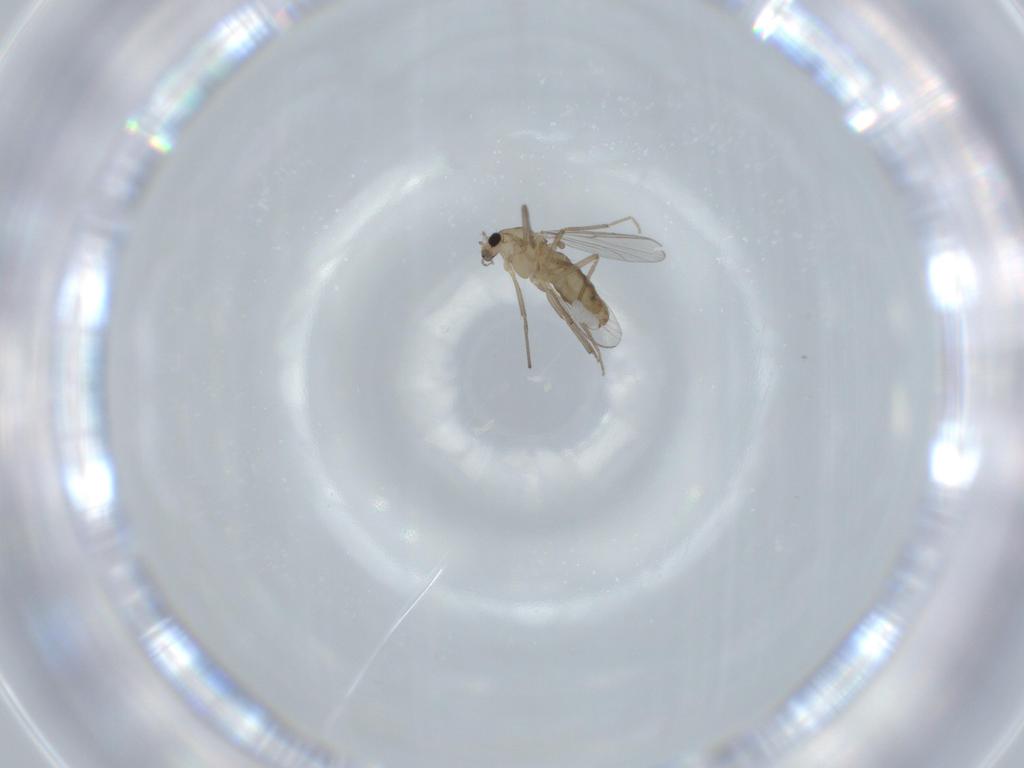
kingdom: Animalia
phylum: Arthropoda
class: Insecta
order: Diptera
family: Chironomidae
